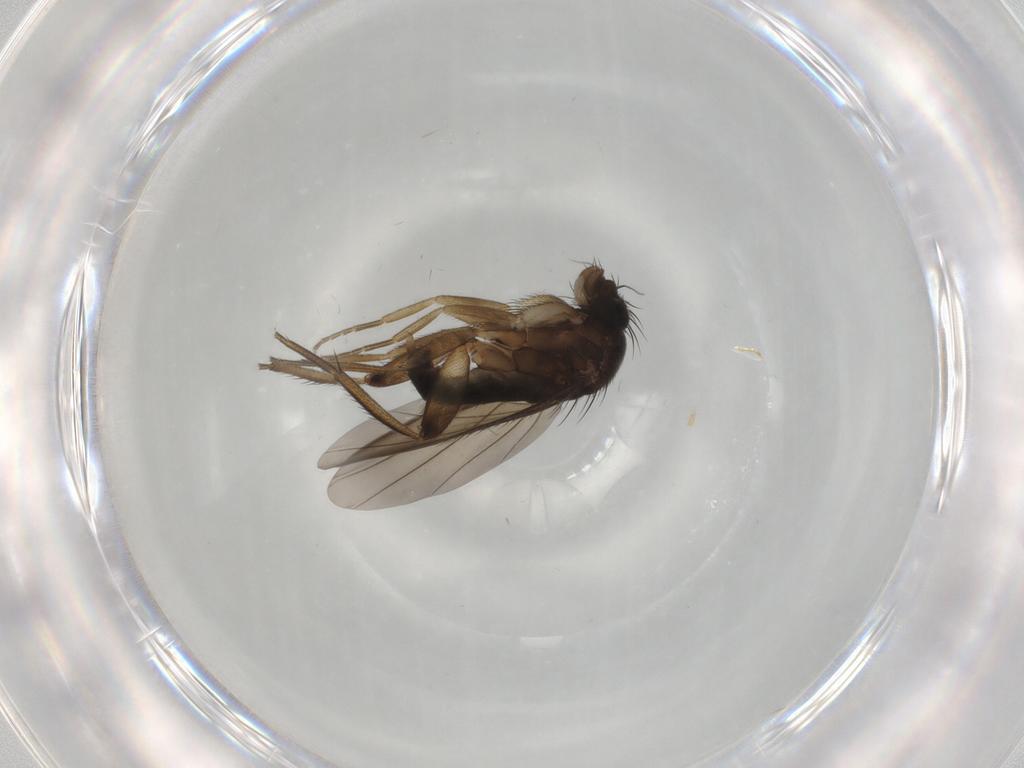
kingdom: Animalia
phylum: Arthropoda
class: Insecta
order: Diptera
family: Phoridae
